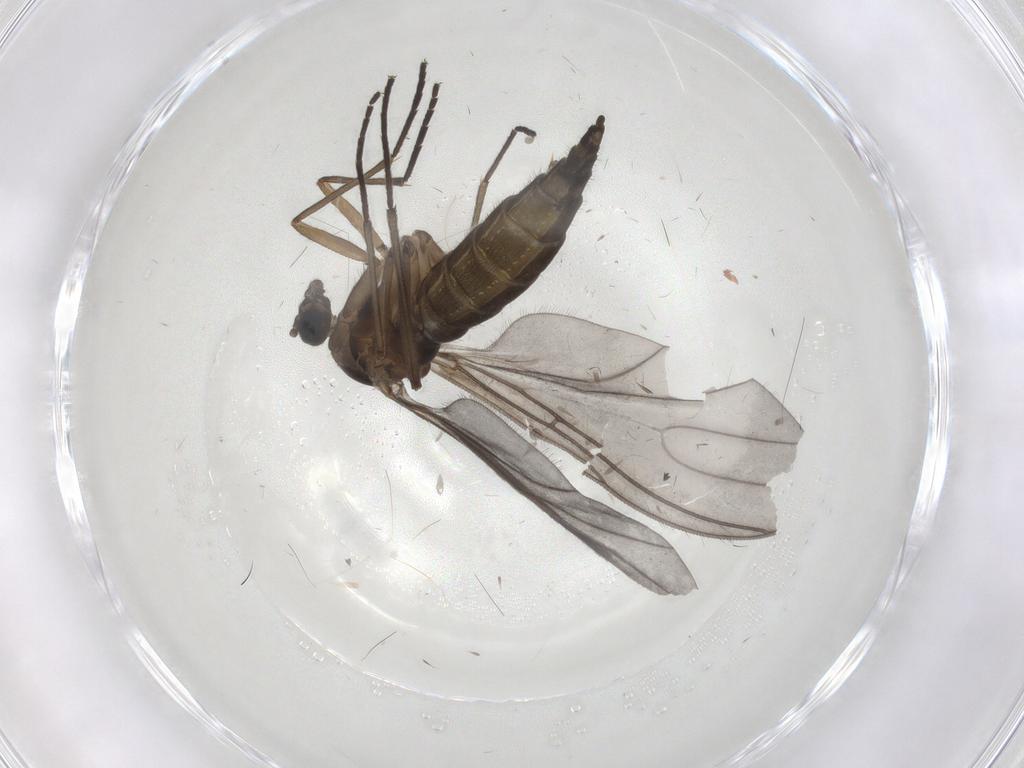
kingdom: Animalia
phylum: Arthropoda
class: Insecta
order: Diptera
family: Sciaridae
